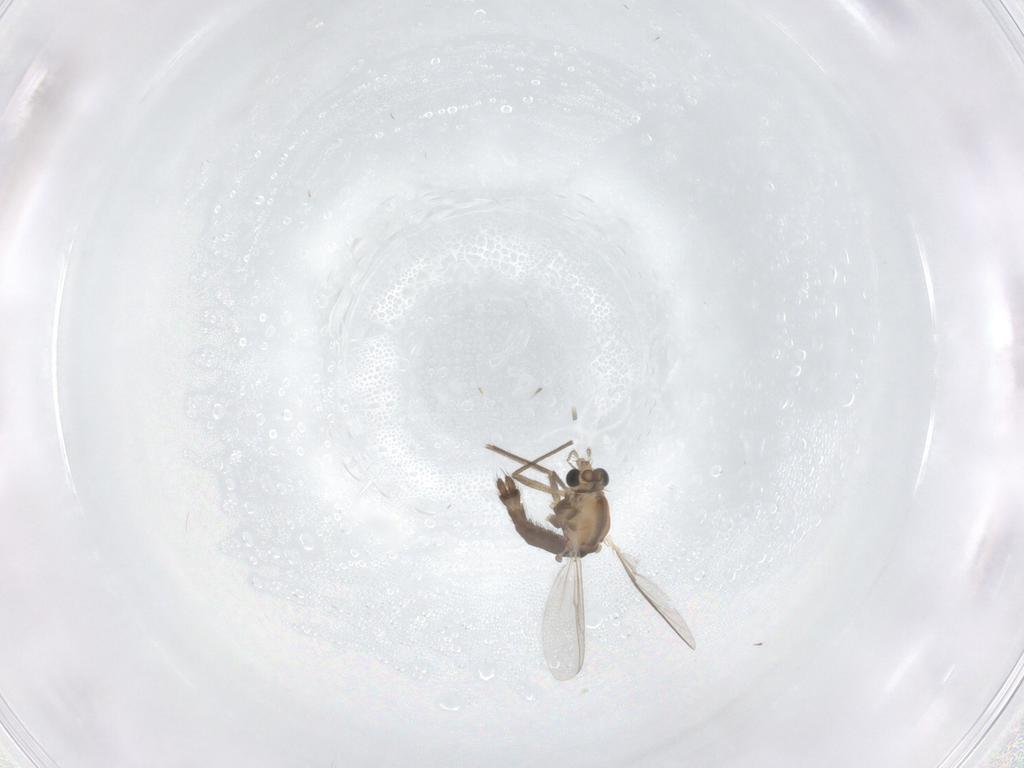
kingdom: Animalia
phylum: Arthropoda
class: Insecta
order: Diptera
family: Chironomidae
